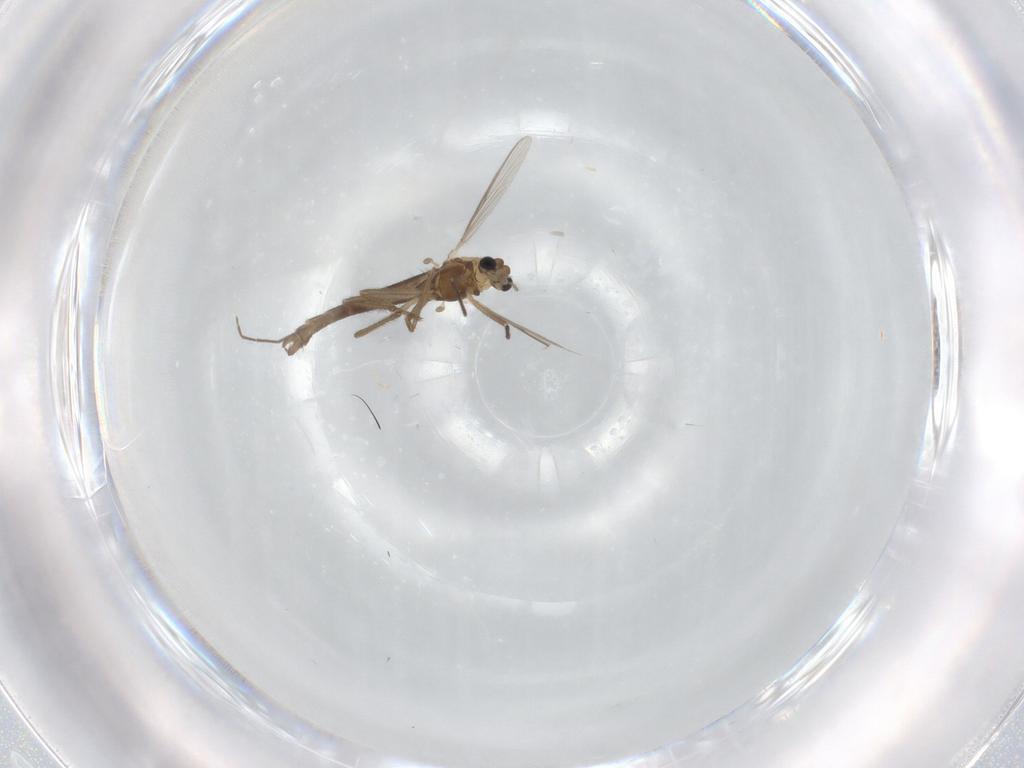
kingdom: Animalia
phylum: Arthropoda
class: Insecta
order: Diptera
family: Chironomidae
